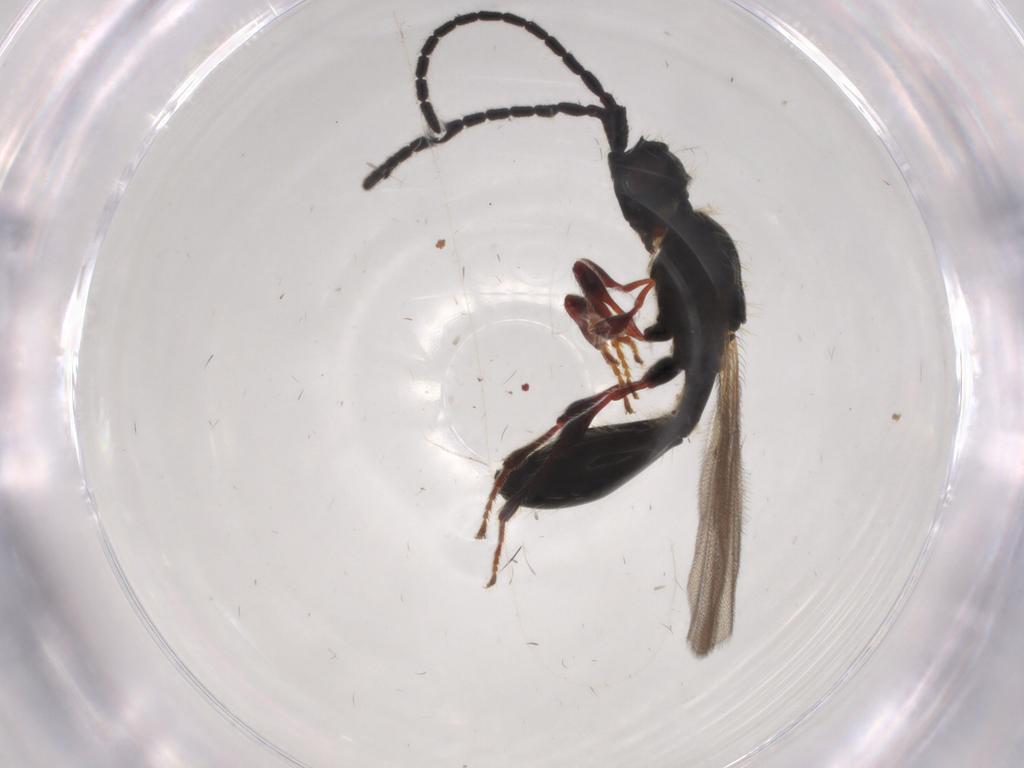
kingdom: Animalia
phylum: Arthropoda
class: Insecta
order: Hymenoptera
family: Diapriidae
